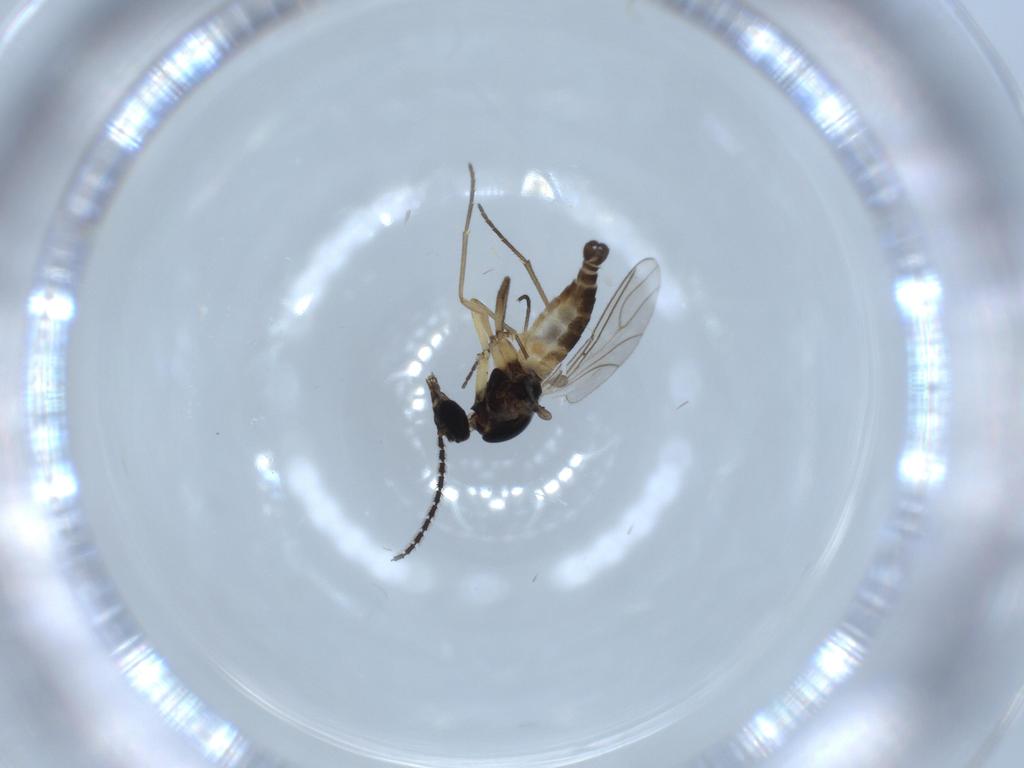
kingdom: Animalia
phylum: Arthropoda
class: Insecta
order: Diptera
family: Sciaridae
